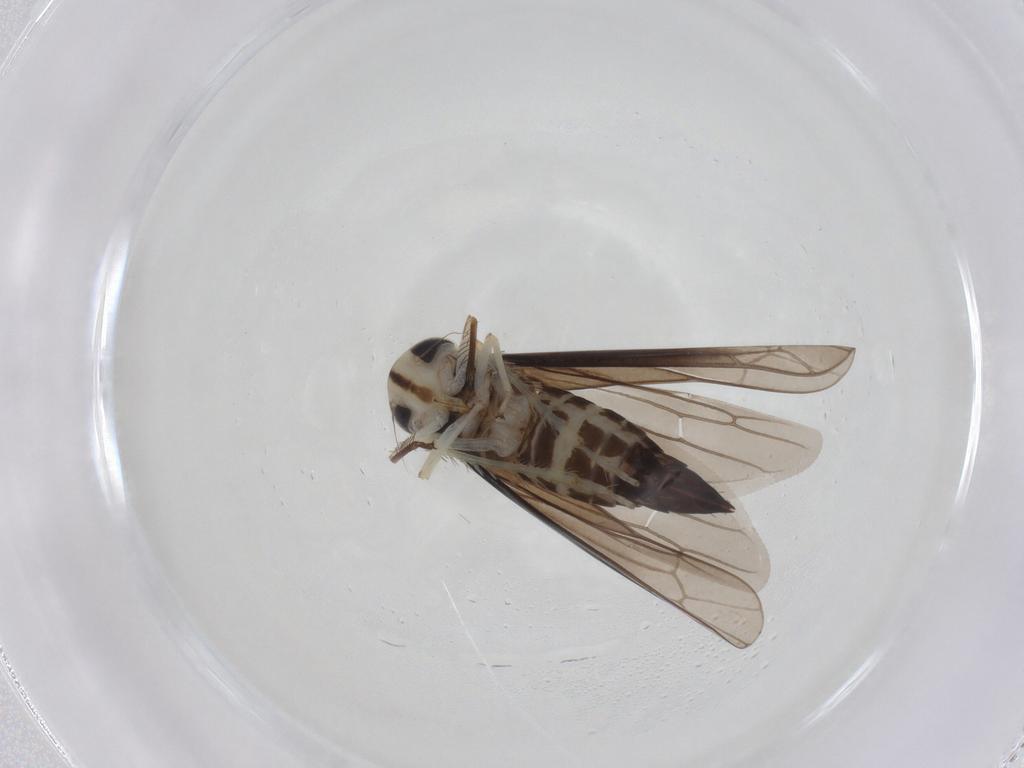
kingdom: Animalia
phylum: Arthropoda
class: Insecta
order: Hemiptera
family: Cicadellidae
